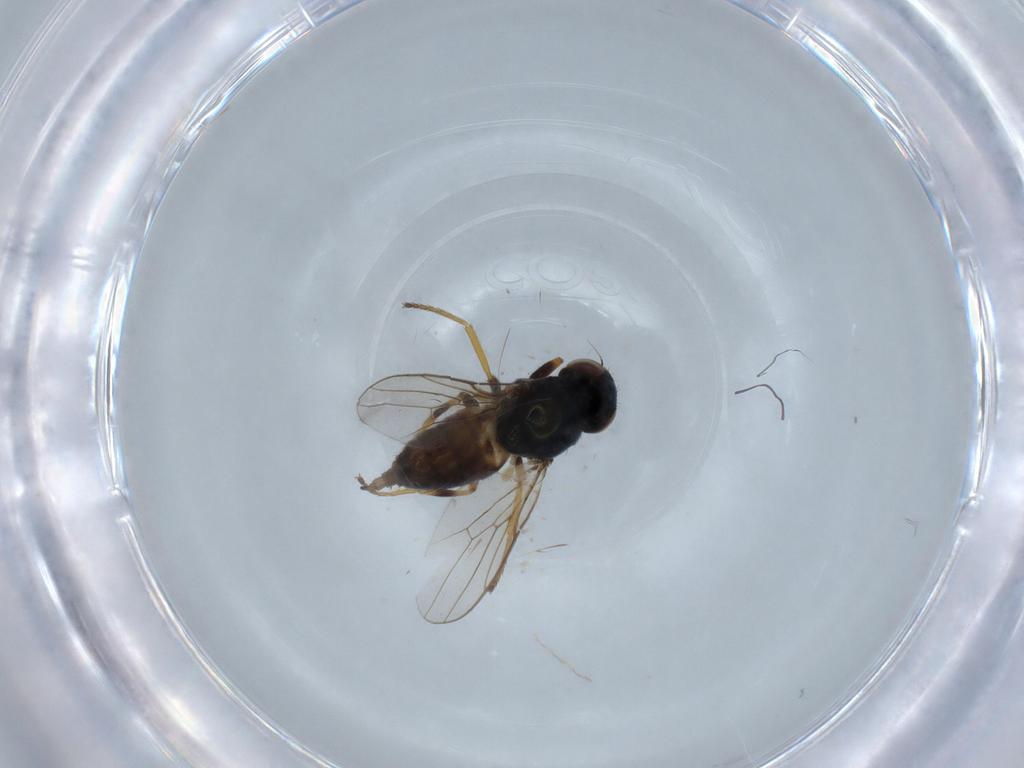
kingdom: Animalia
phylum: Arthropoda
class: Insecta
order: Diptera
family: Chloropidae
